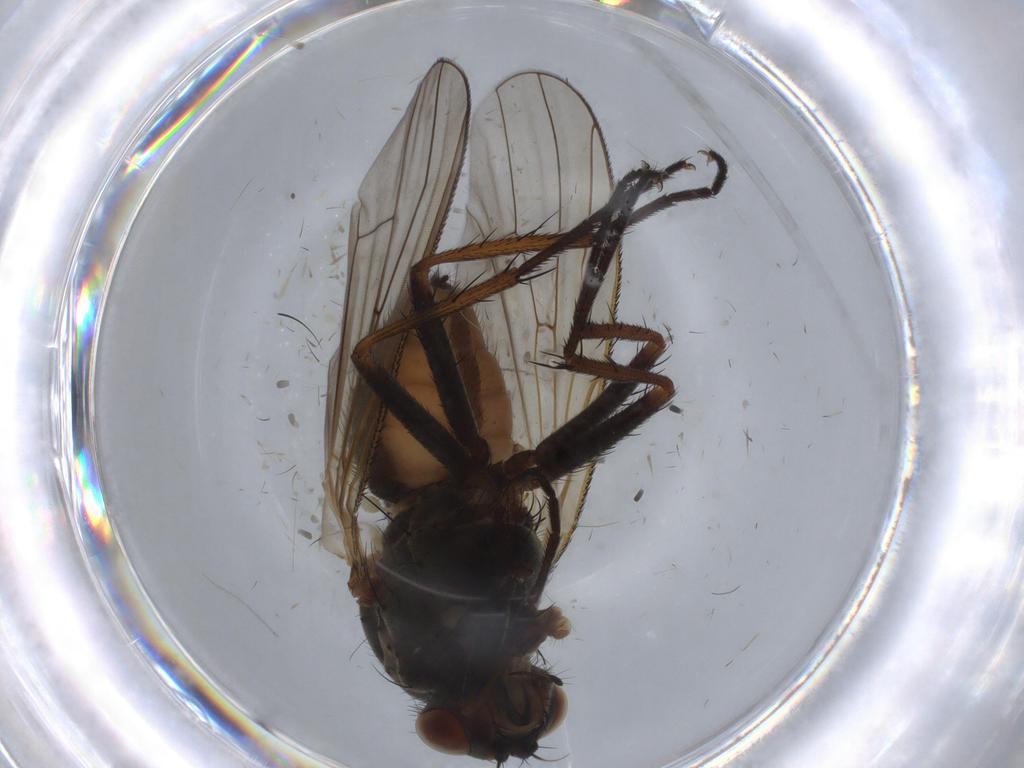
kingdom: Animalia
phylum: Arthropoda
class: Insecta
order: Diptera
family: Anthomyiidae
